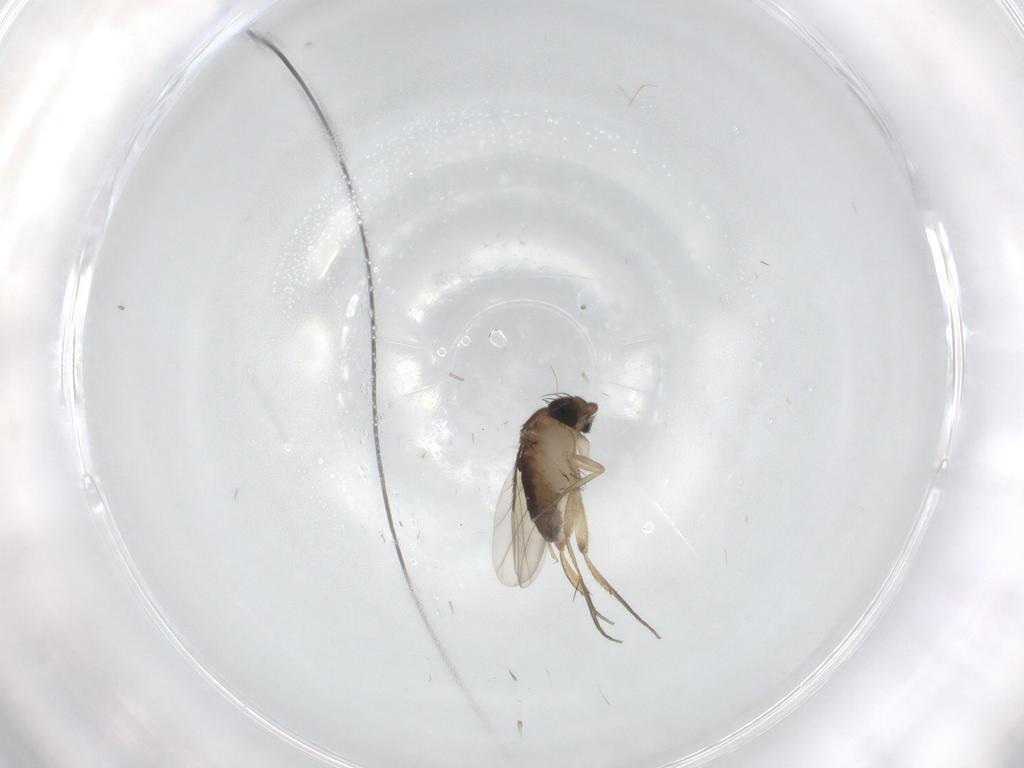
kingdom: Animalia
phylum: Arthropoda
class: Insecta
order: Diptera
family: Phoridae
